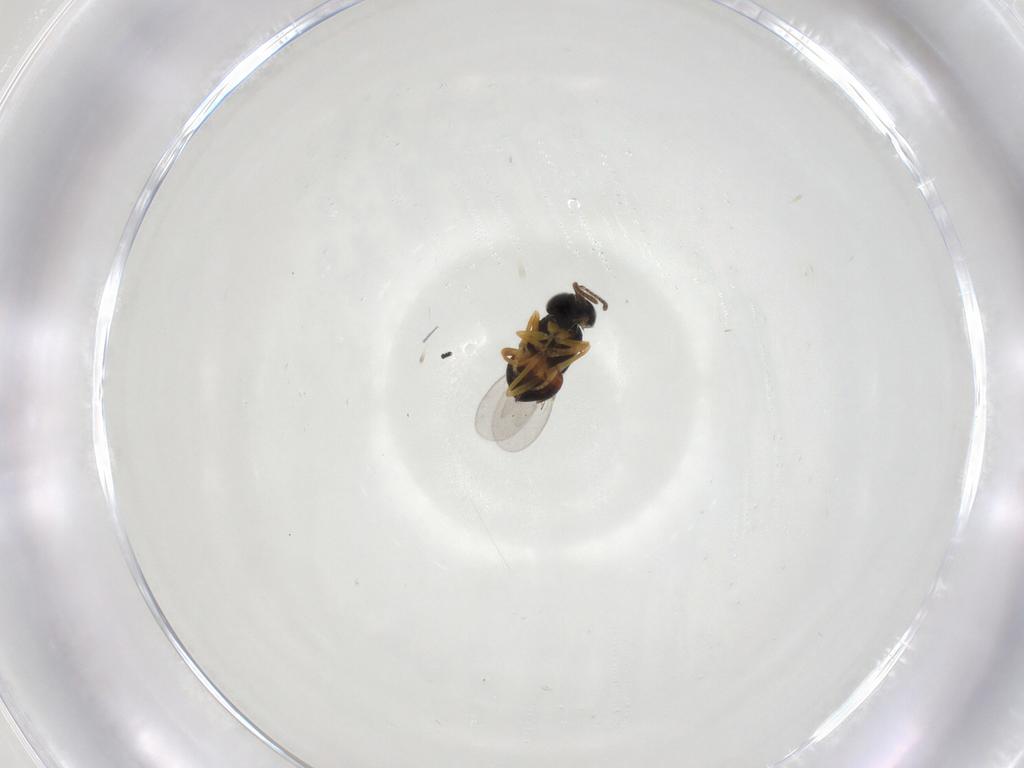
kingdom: Animalia
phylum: Arthropoda
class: Insecta
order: Hymenoptera
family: Encyrtidae
